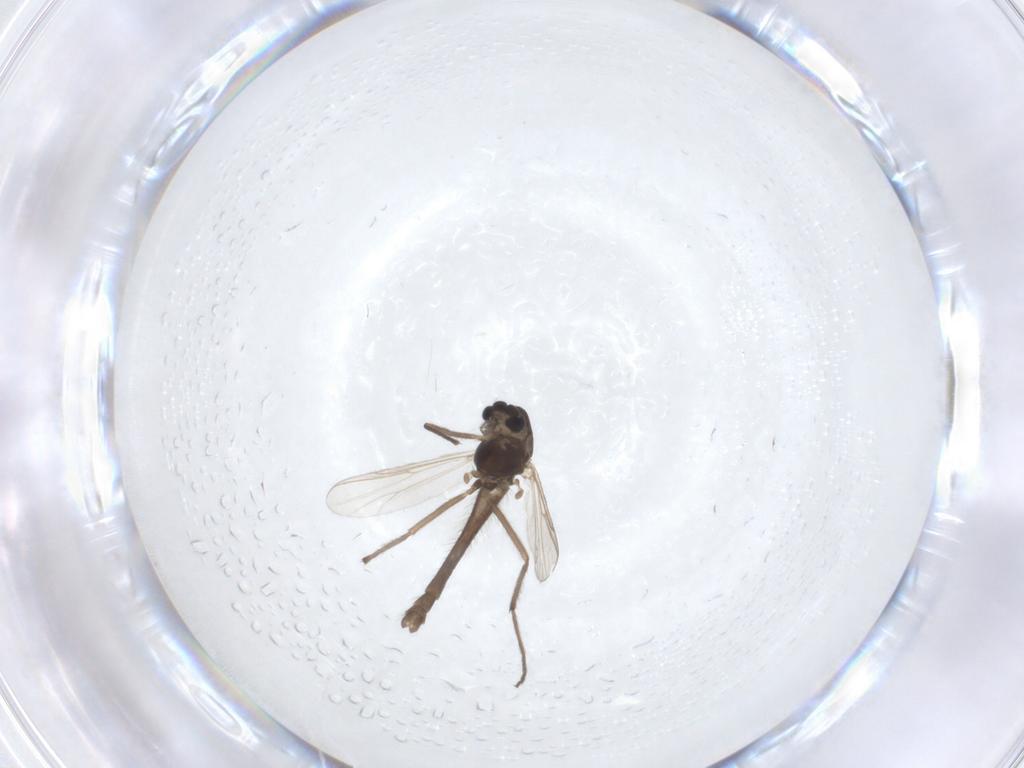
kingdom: Animalia
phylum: Arthropoda
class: Insecta
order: Diptera
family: Chironomidae
